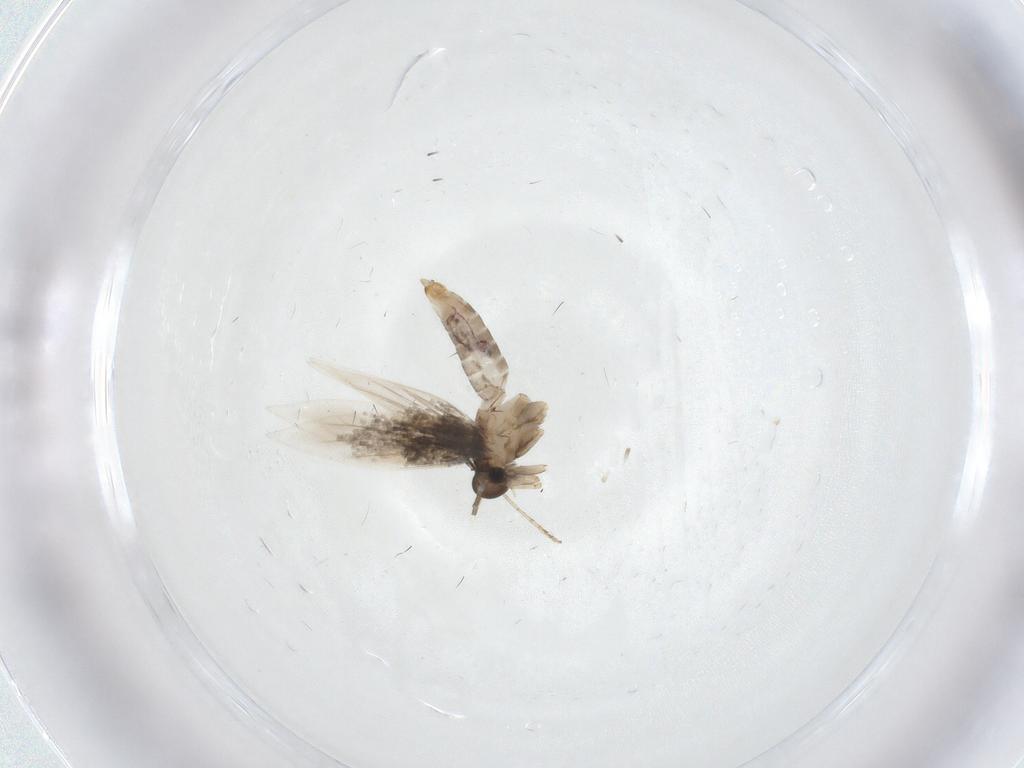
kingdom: Animalia
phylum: Arthropoda
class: Insecta
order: Lepidoptera
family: Heliozelidae
